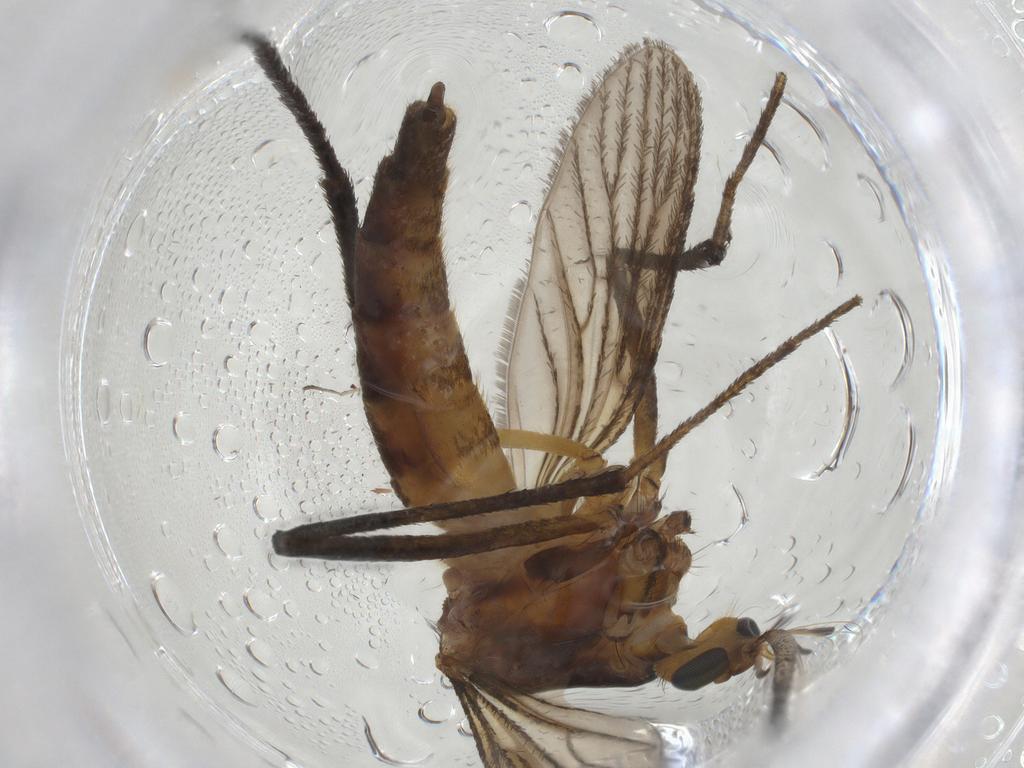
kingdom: Animalia
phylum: Arthropoda
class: Insecta
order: Diptera
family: Cecidomyiidae
